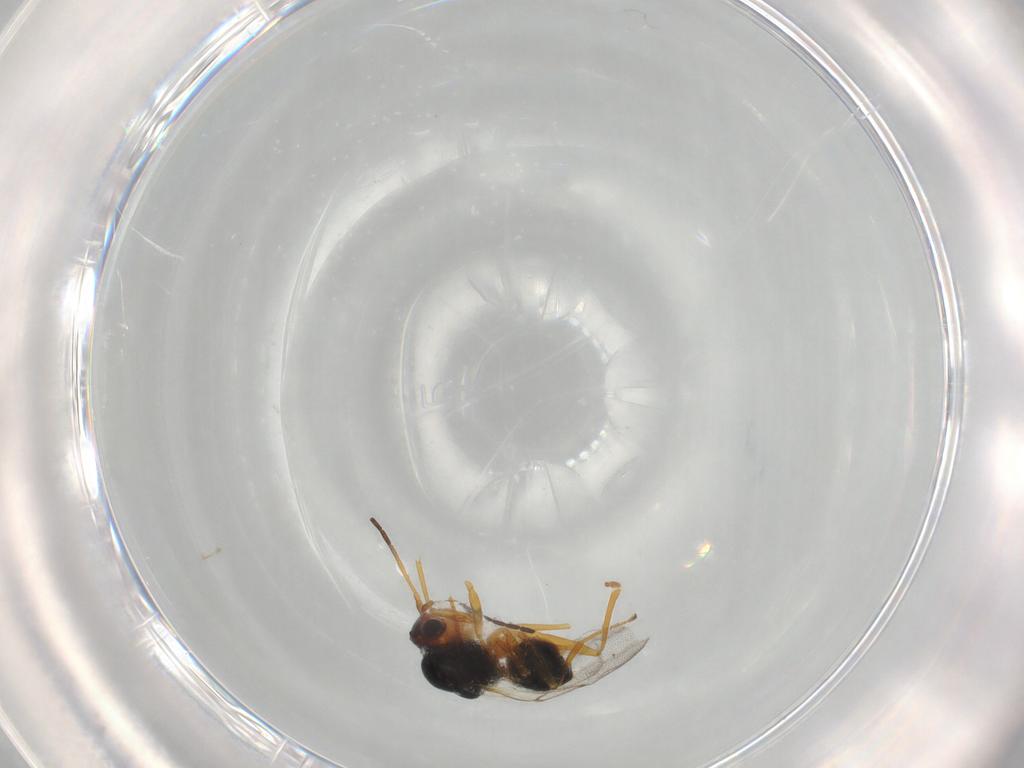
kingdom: Animalia
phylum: Arthropoda
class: Insecta
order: Hymenoptera
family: Figitidae
